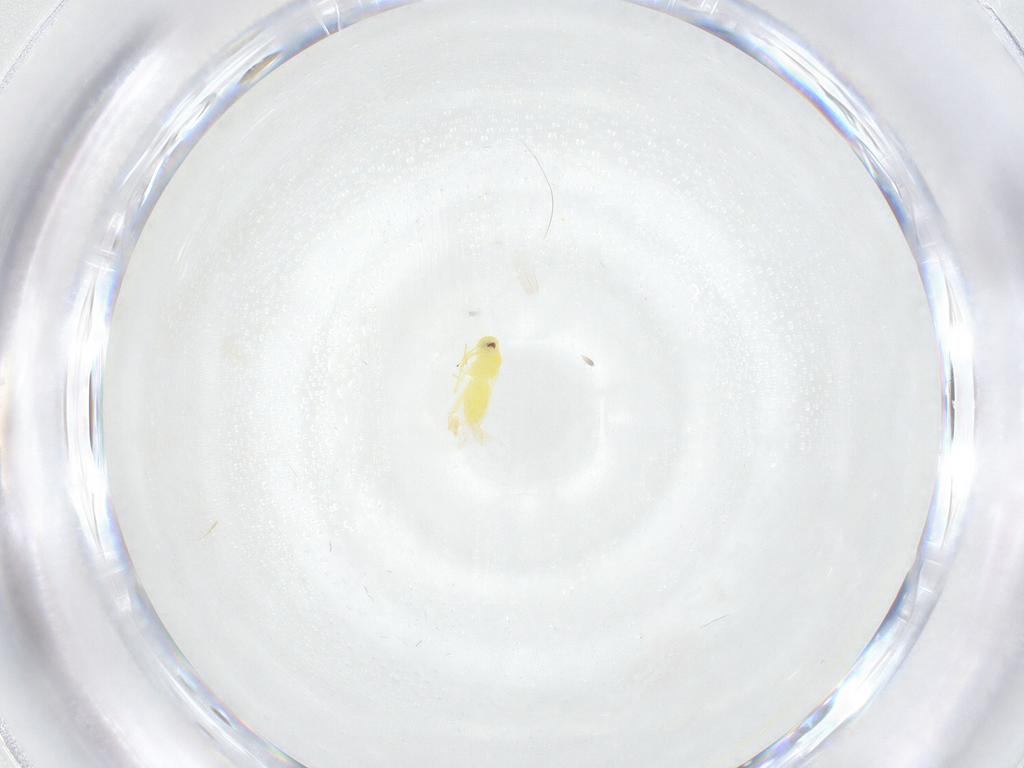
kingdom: Animalia
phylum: Arthropoda
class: Insecta
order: Hemiptera
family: Aleyrodidae
